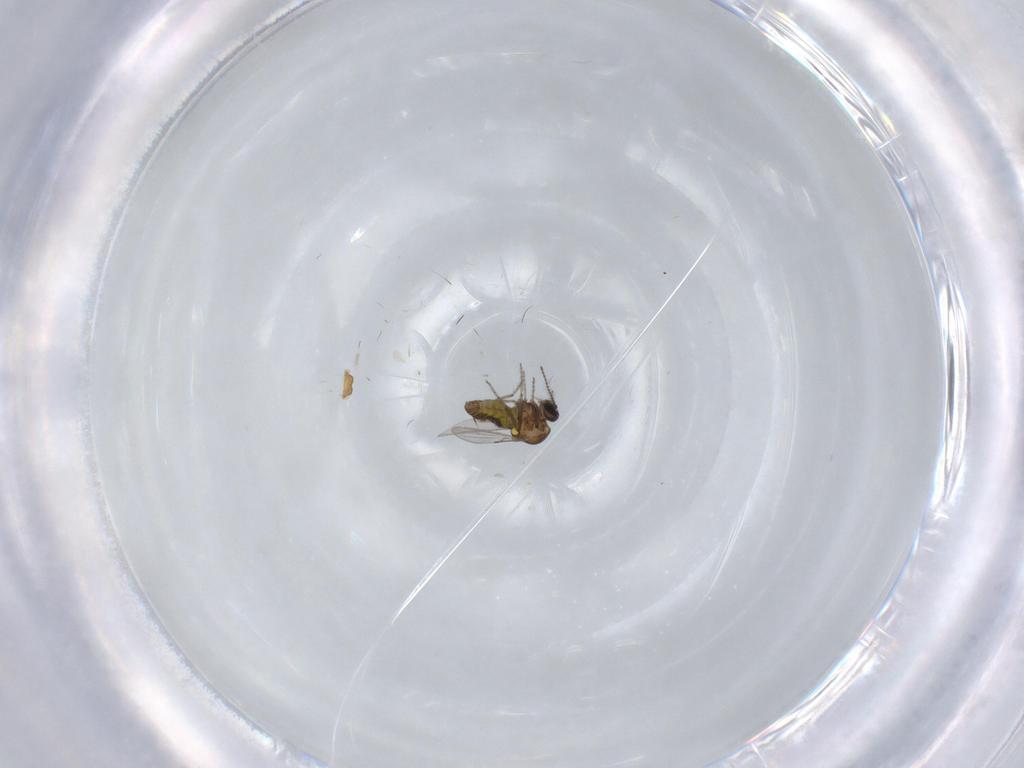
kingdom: Animalia
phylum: Arthropoda
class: Insecta
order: Diptera
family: Ceratopogonidae
